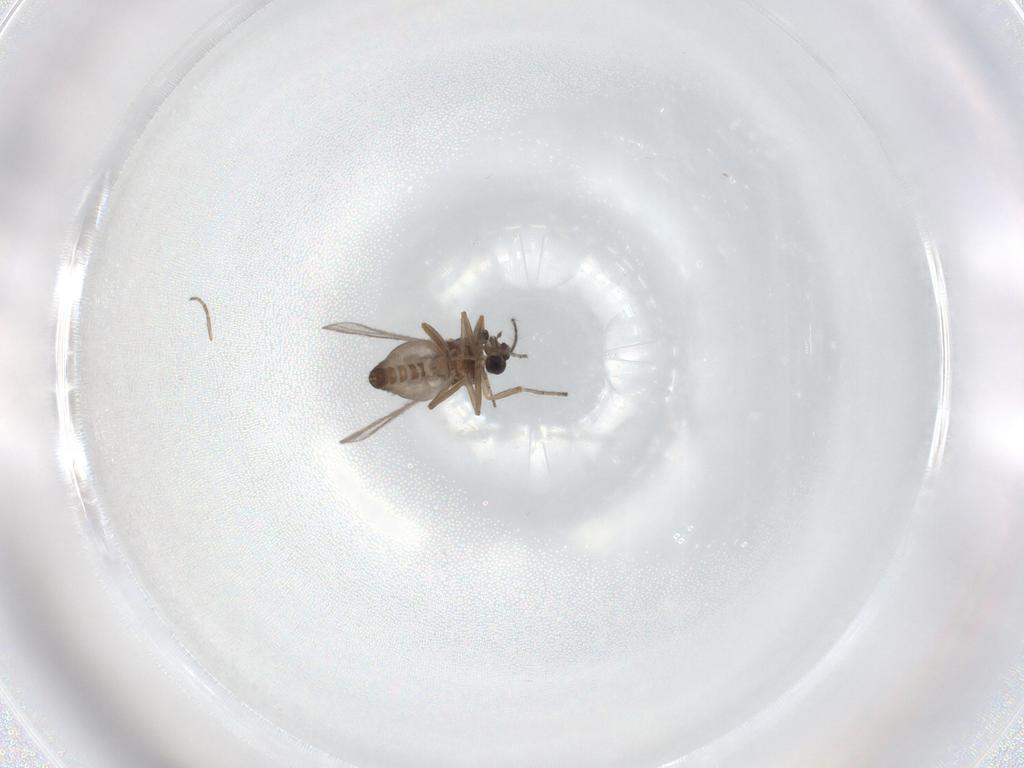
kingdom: Animalia
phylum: Arthropoda
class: Insecta
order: Diptera
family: Ceratopogonidae
